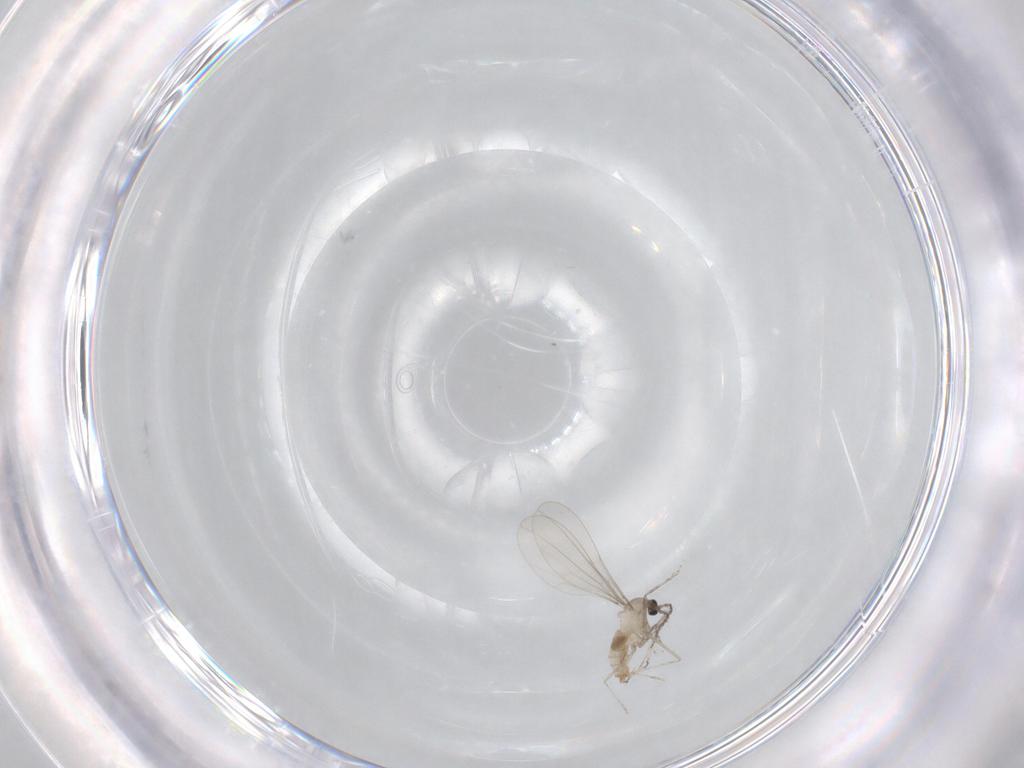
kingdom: Animalia
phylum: Arthropoda
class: Insecta
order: Diptera
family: Cecidomyiidae
